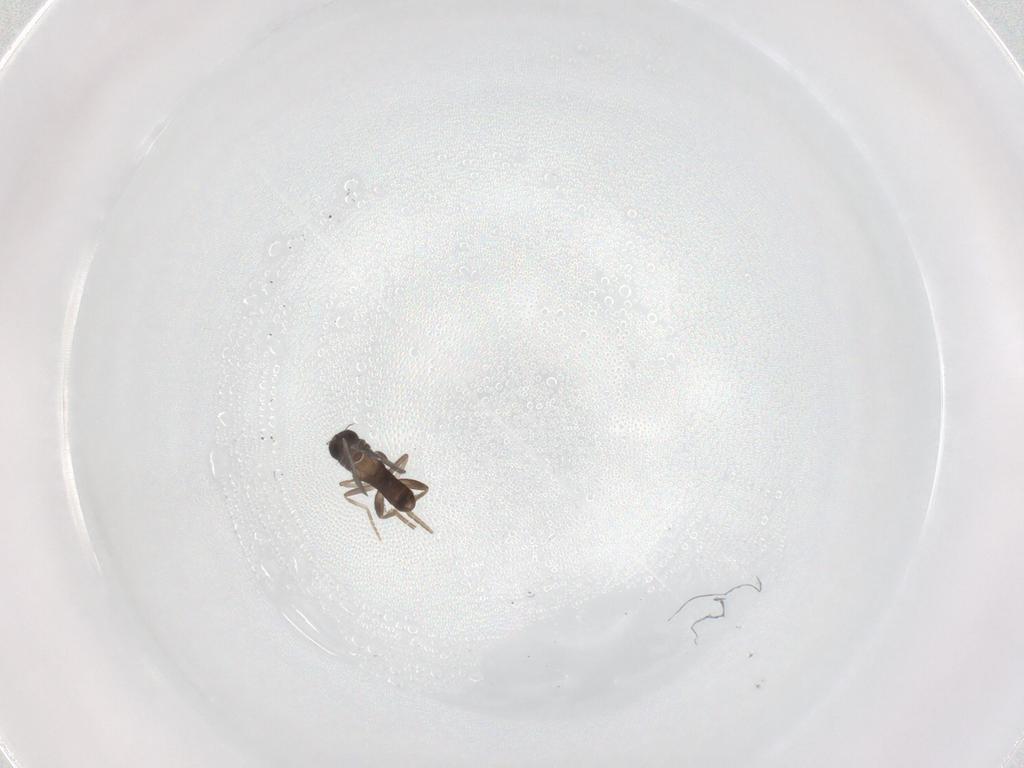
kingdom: Animalia
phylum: Arthropoda
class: Insecta
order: Diptera
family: Phoridae
